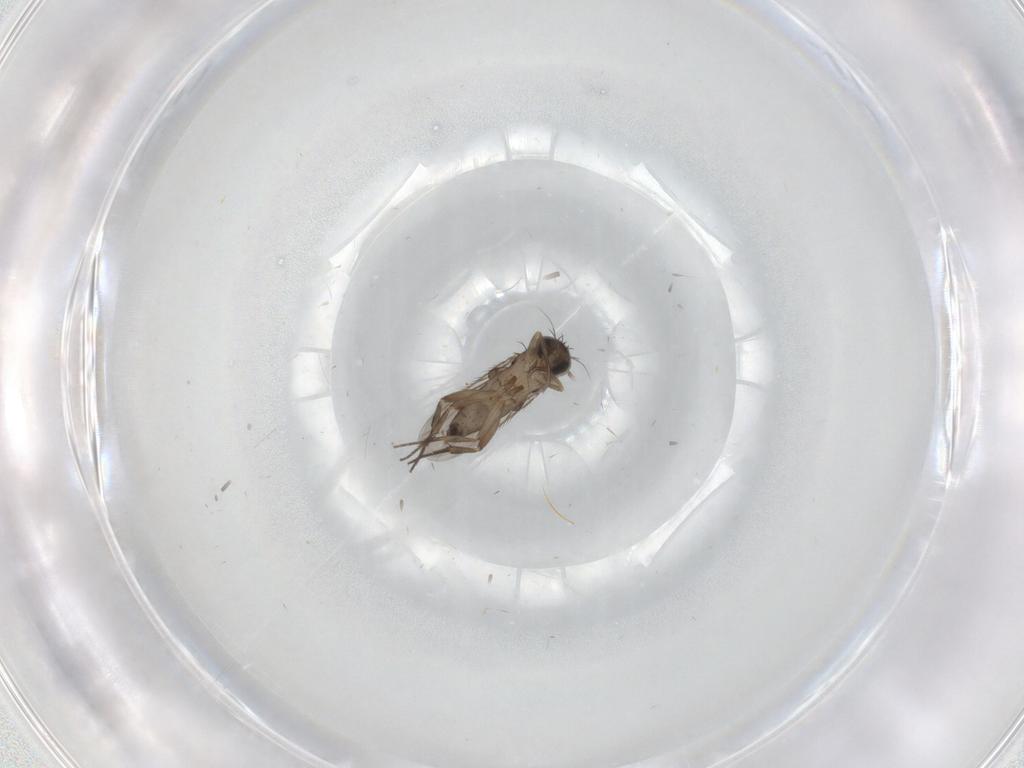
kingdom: Animalia
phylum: Arthropoda
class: Insecta
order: Diptera
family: Phoridae
